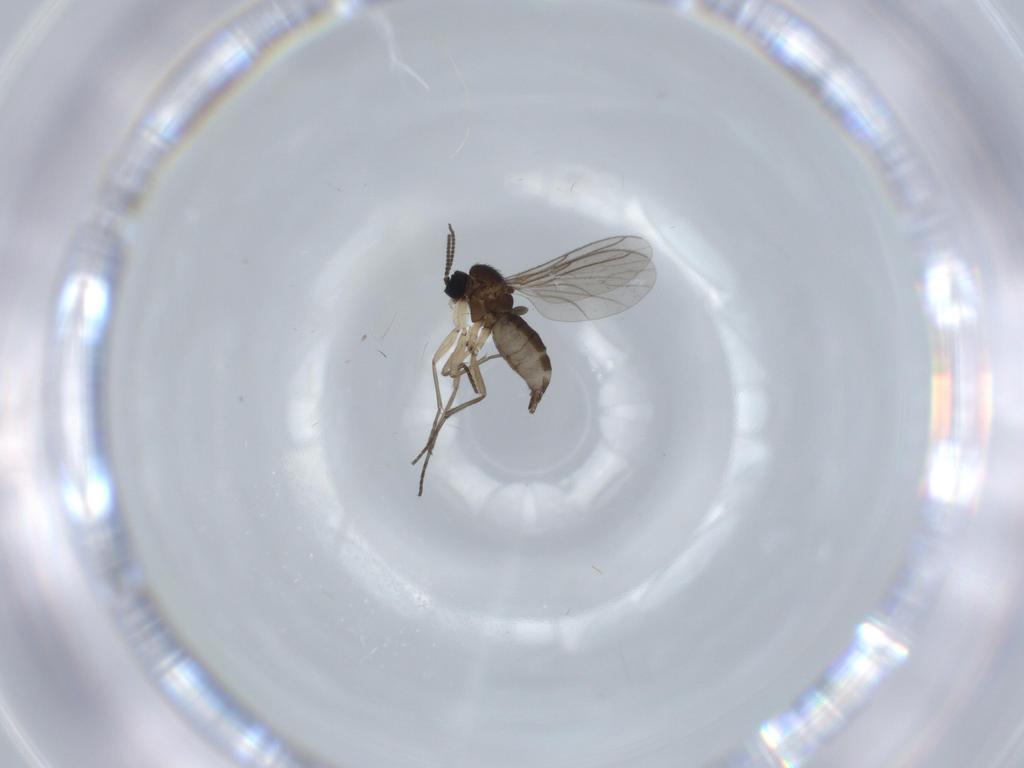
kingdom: Animalia
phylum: Arthropoda
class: Insecta
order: Diptera
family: Sciaridae
